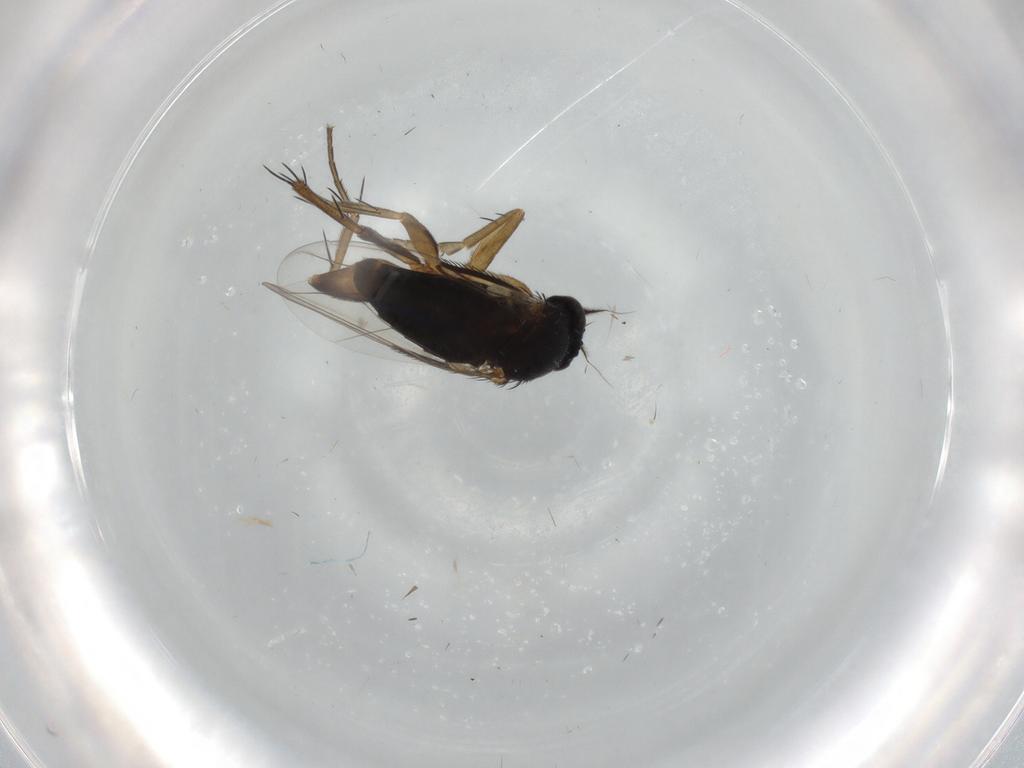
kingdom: Animalia
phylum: Arthropoda
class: Insecta
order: Diptera
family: Phoridae
